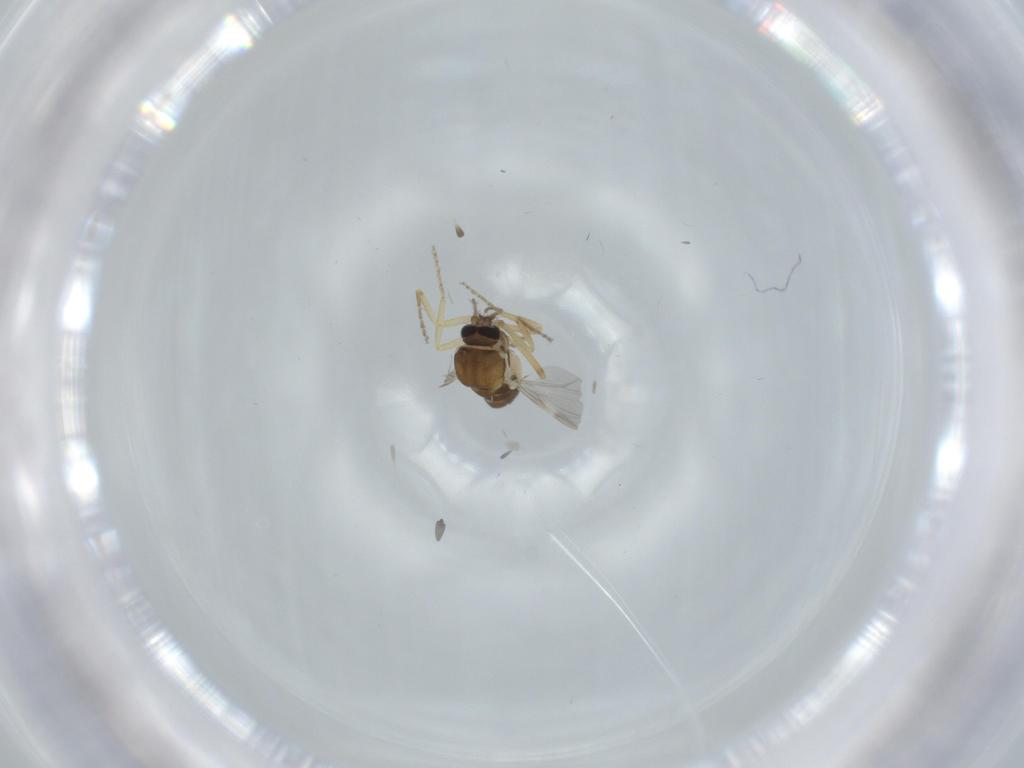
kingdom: Animalia
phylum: Arthropoda
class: Insecta
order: Diptera
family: Ceratopogonidae
